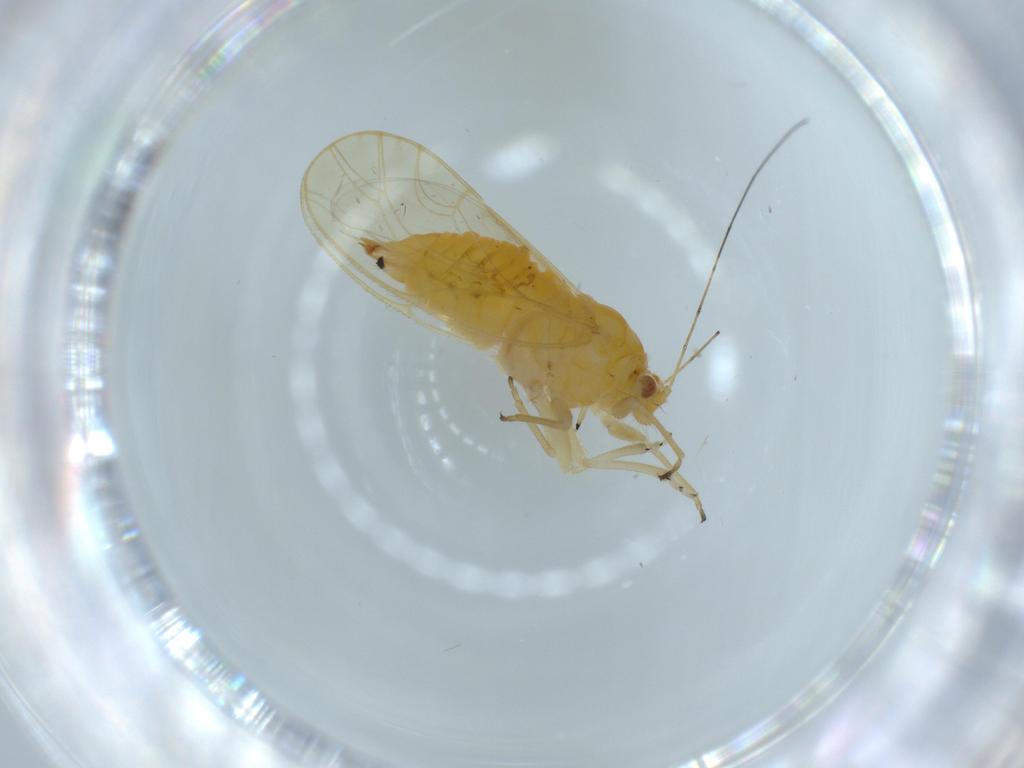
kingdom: Animalia
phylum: Arthropoda
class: Insecta
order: Hemiptera
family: Psyllidae
